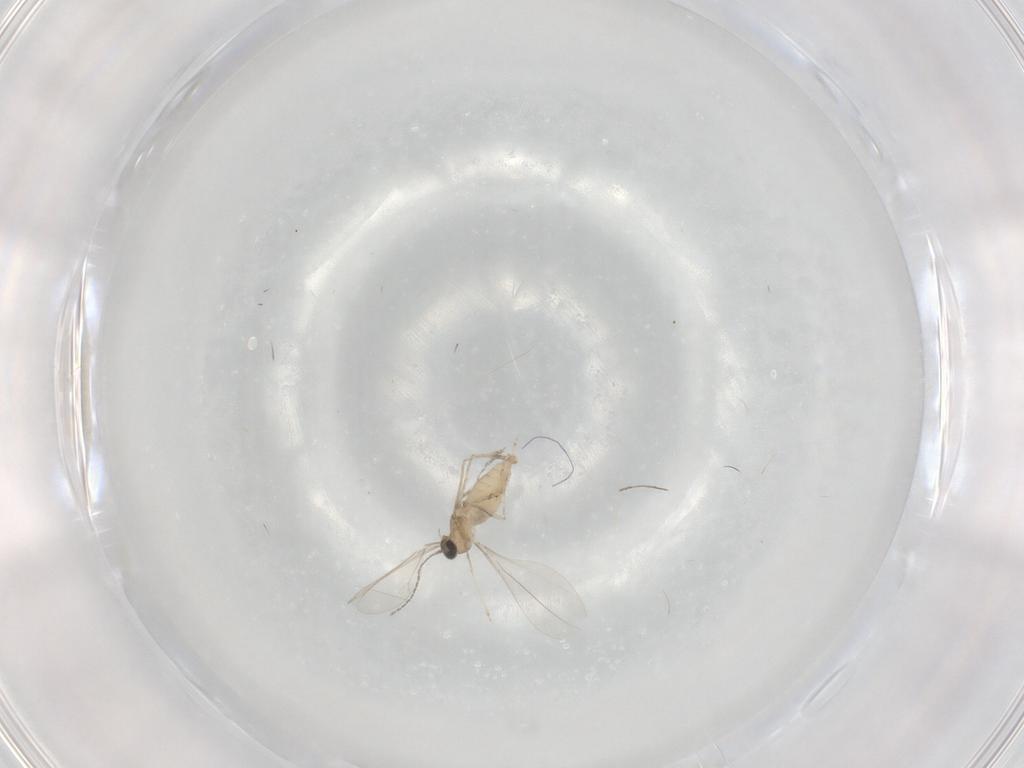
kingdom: Animalia
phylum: Arthropoda
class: Insecta
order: Diptera
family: Cecidomyiidae
